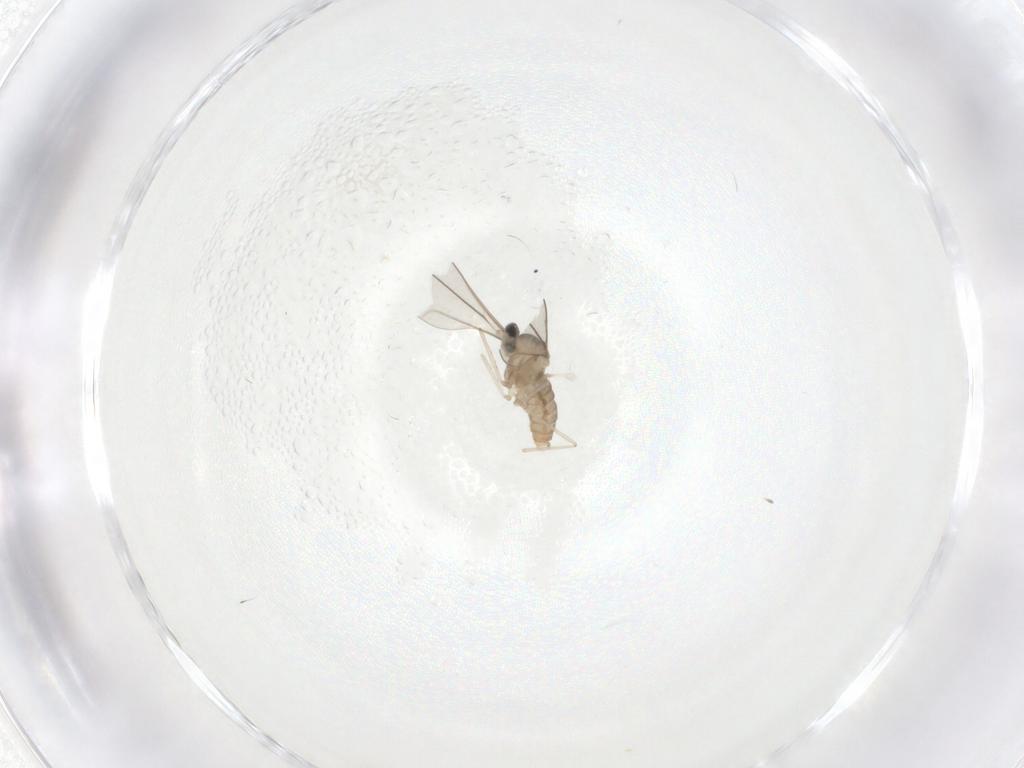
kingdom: Animalia
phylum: Arthropoda
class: Insecta
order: Diptera
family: Cecidomyiidae
